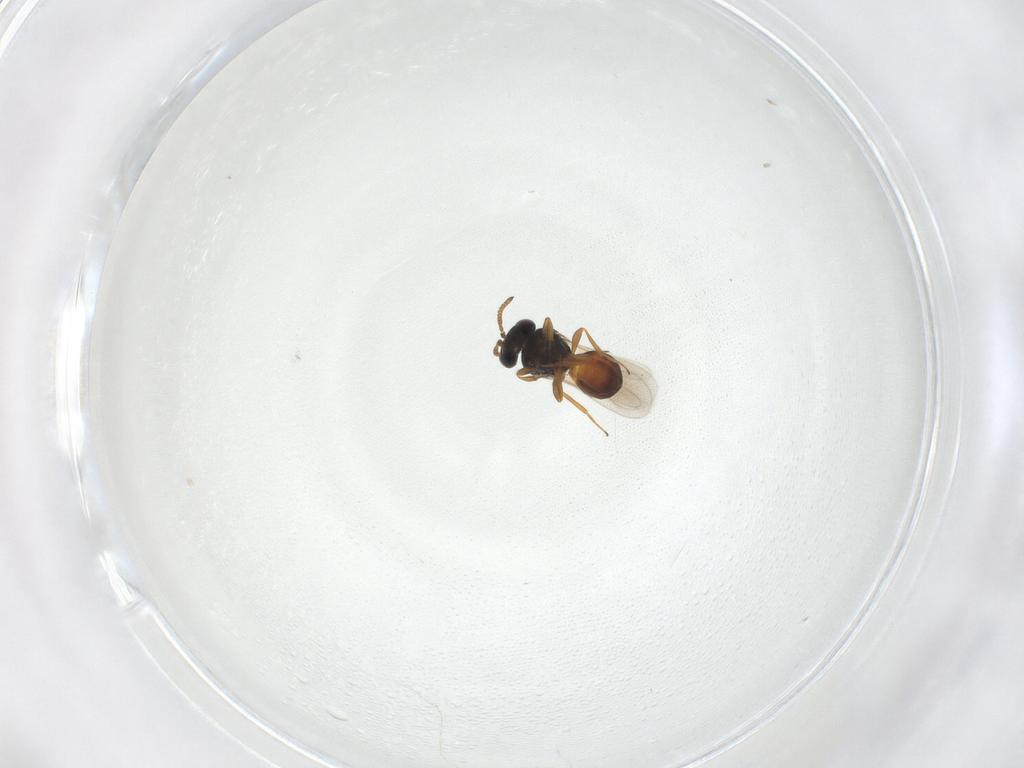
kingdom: Animalia
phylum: Arthropoda
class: Insecta
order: Hymenoptera
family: Scelionidae
